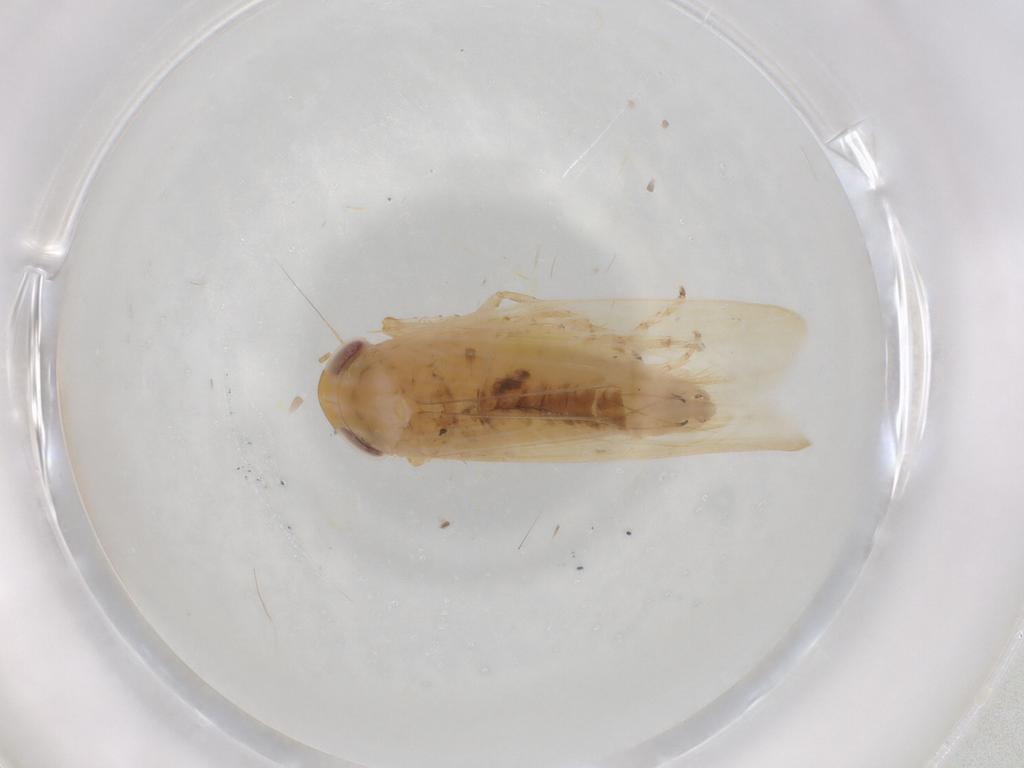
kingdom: Animalia
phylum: Arthropoda
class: Insecta
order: Hemiptera
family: Cicadellidae
